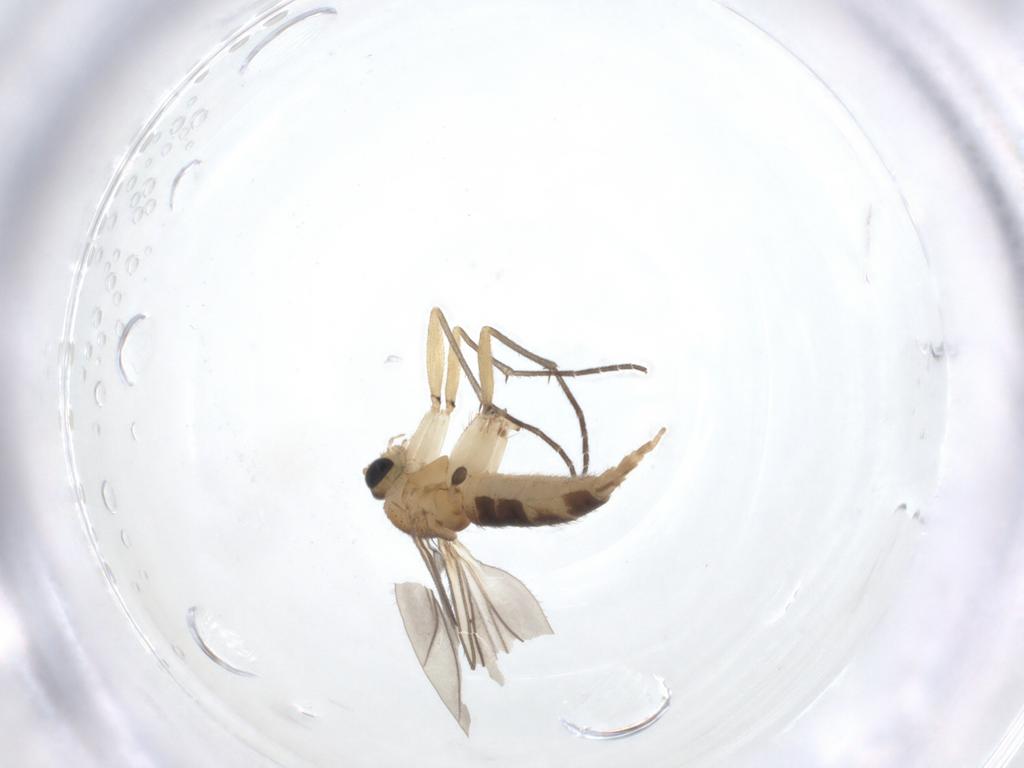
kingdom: Animalia
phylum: Arthropoda
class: Insecta
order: Diptera
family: Sciaridae
